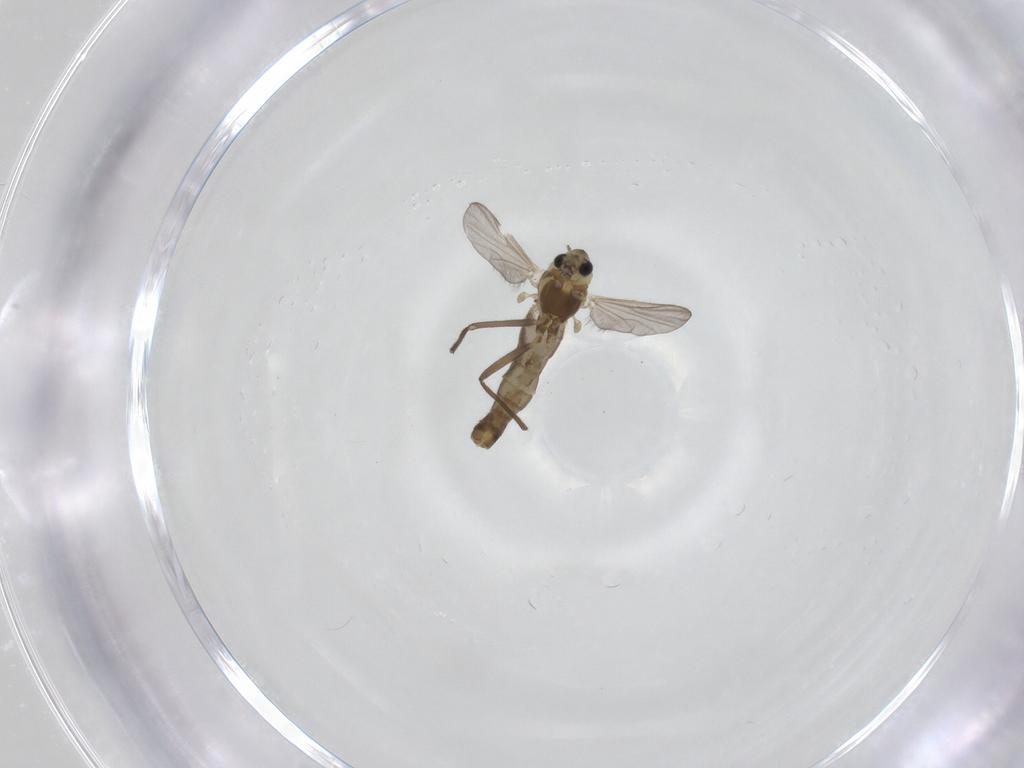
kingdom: Animalia
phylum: Arthropoda
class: Insecta
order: Diptera
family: Chironomidae
